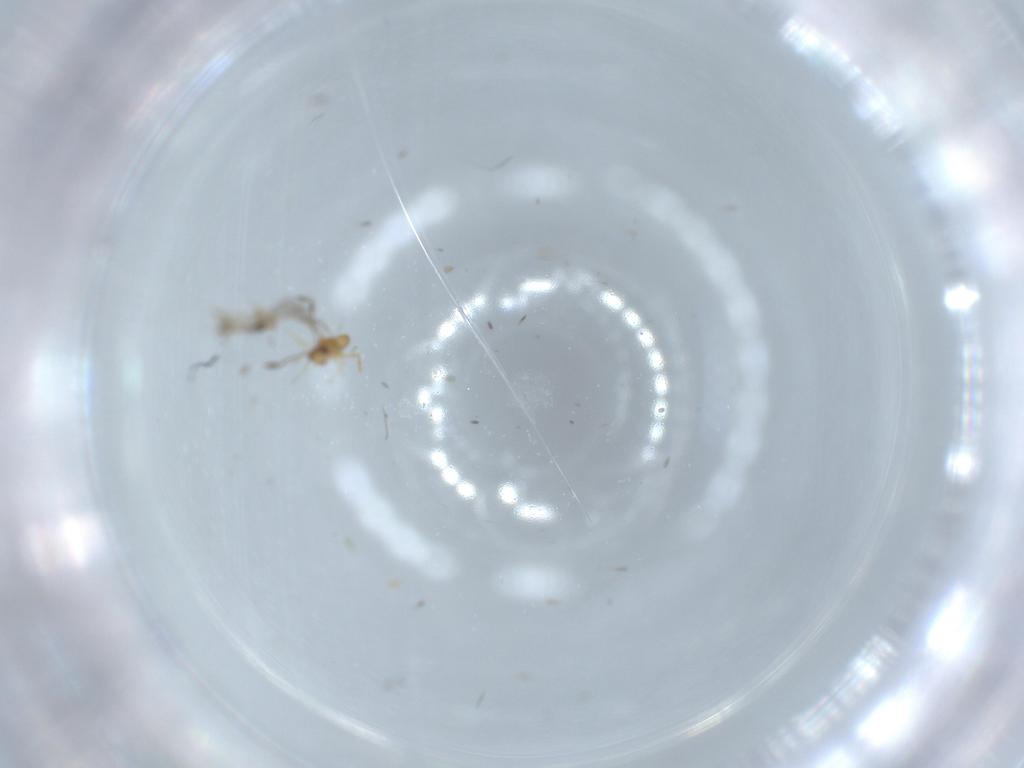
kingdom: Animalia
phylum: Arthropoda
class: Insecta
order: Diptera
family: Cecidomyiidae
